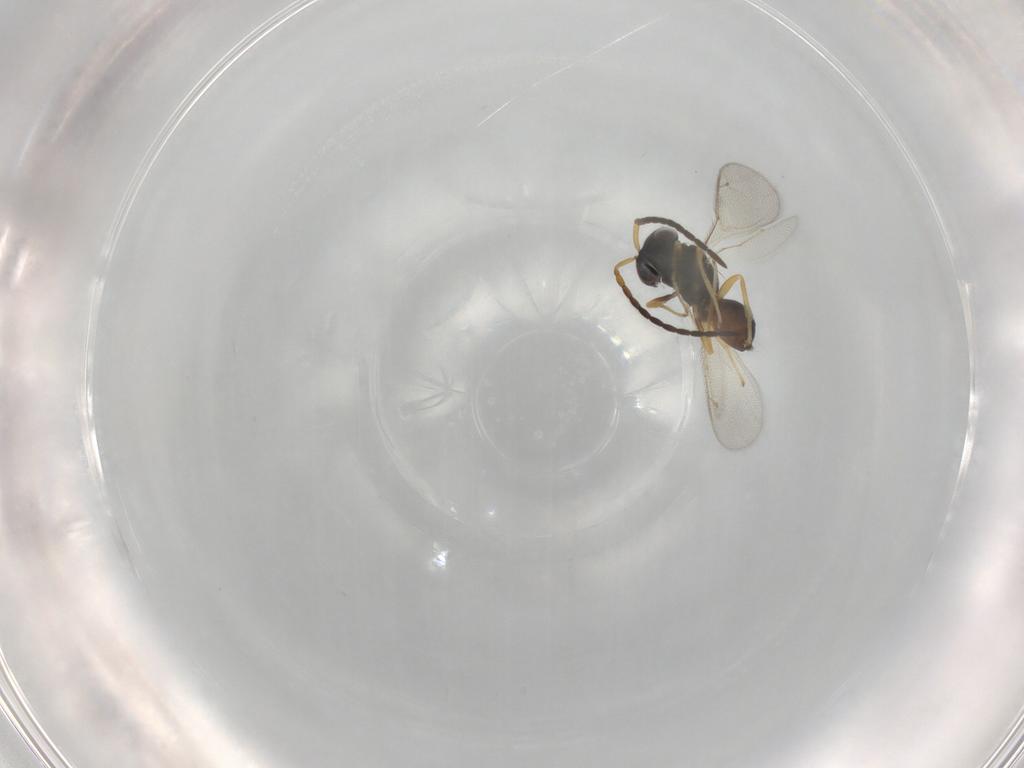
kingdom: Animalia
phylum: Arthropoda
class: Insecta
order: Hymenoptera
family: Diparidae
